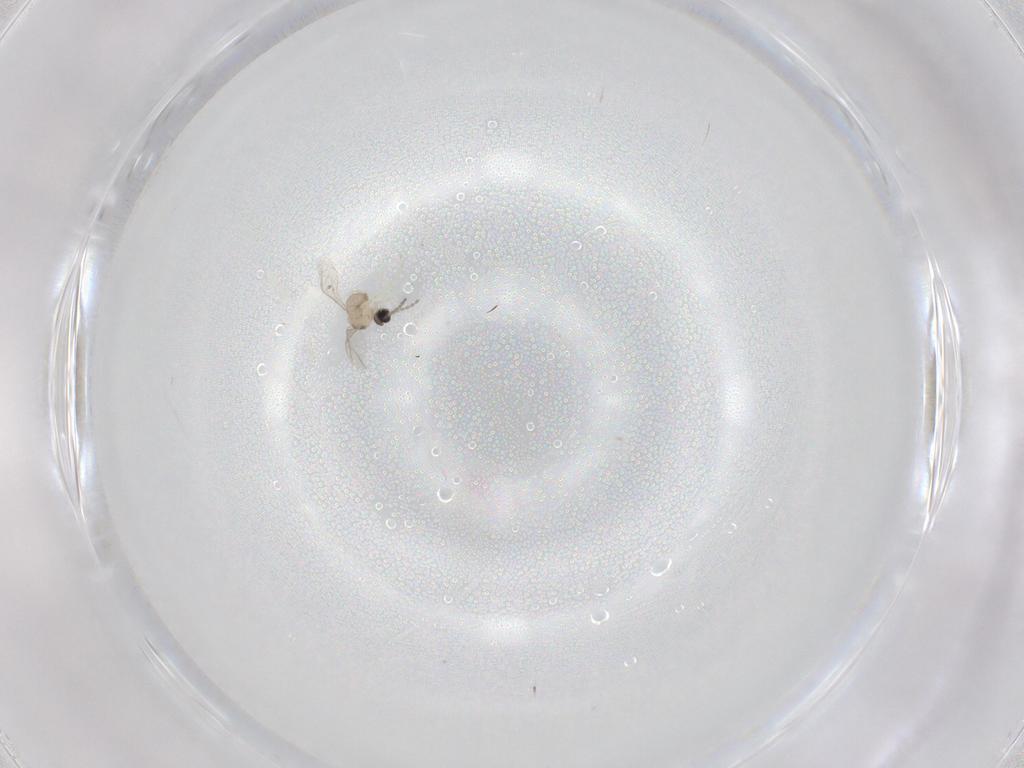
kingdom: Animalia
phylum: Arthropoda
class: Insecta
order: Diptera
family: Cecidomyiidae
